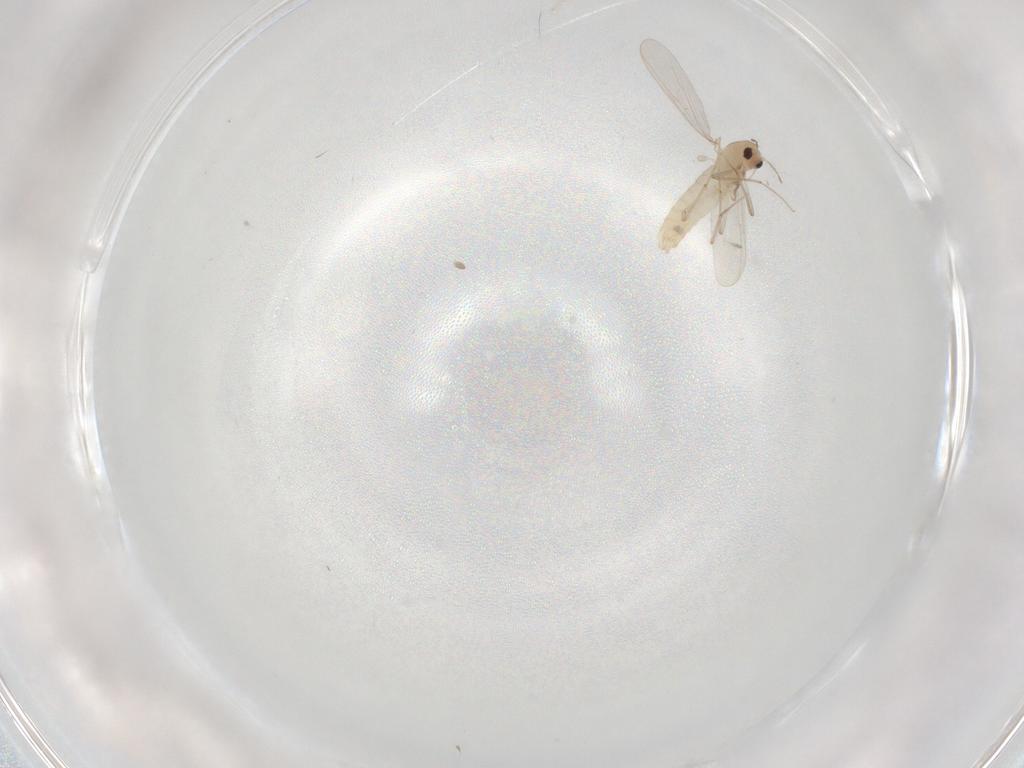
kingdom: Animalia
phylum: Arthropoda
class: Insecta
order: Diptera
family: Chironomidae
